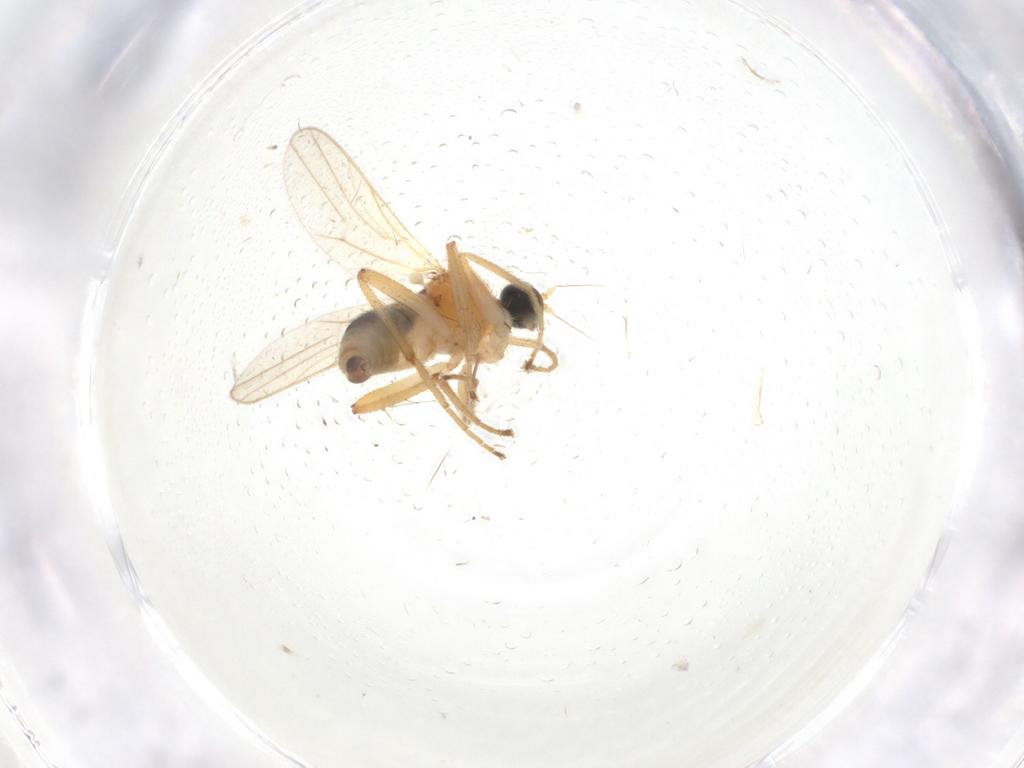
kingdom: Animalia
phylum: Arthropoda
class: Insecta
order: Diptera
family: Hybotidae
